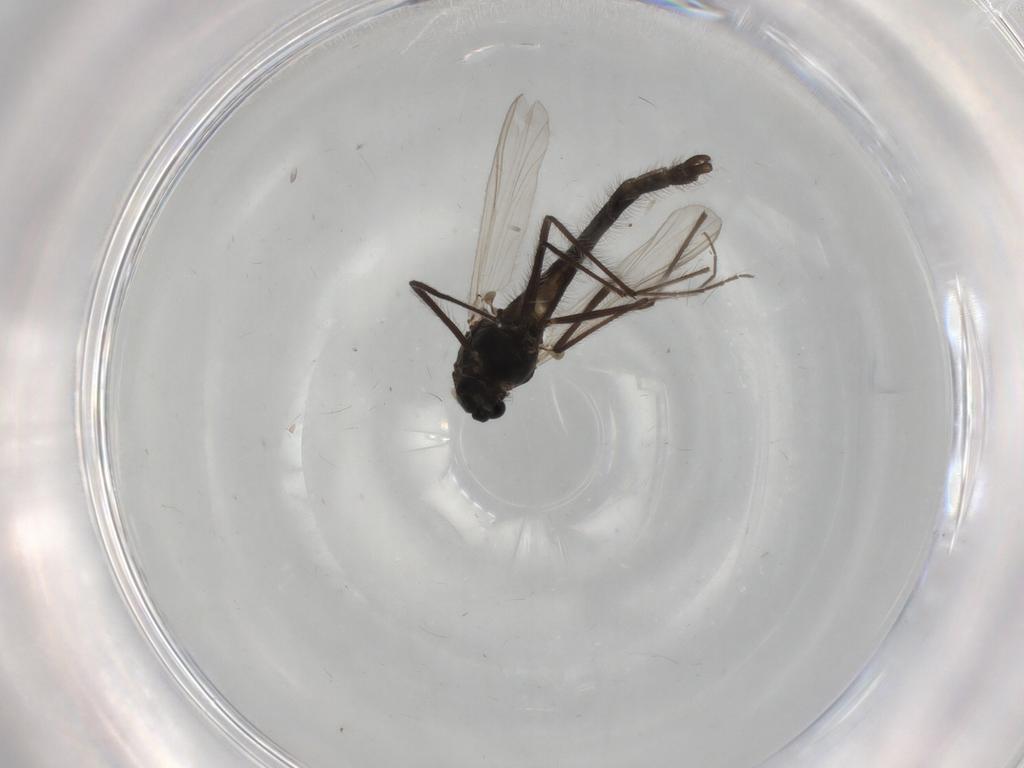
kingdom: Animalia
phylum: Arthropoda
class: Insecta
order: Diptera
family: Chironomidae
